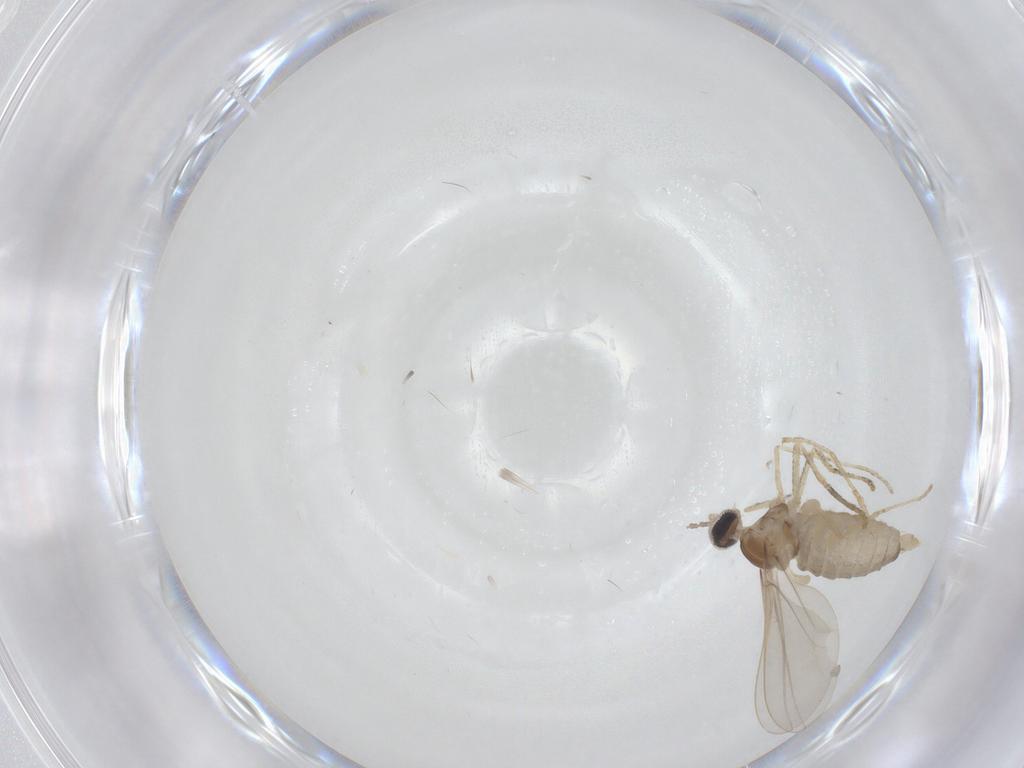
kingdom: Animalia
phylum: Arthropoda
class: Insecta
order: Diptera
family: Cecidomyiidae
